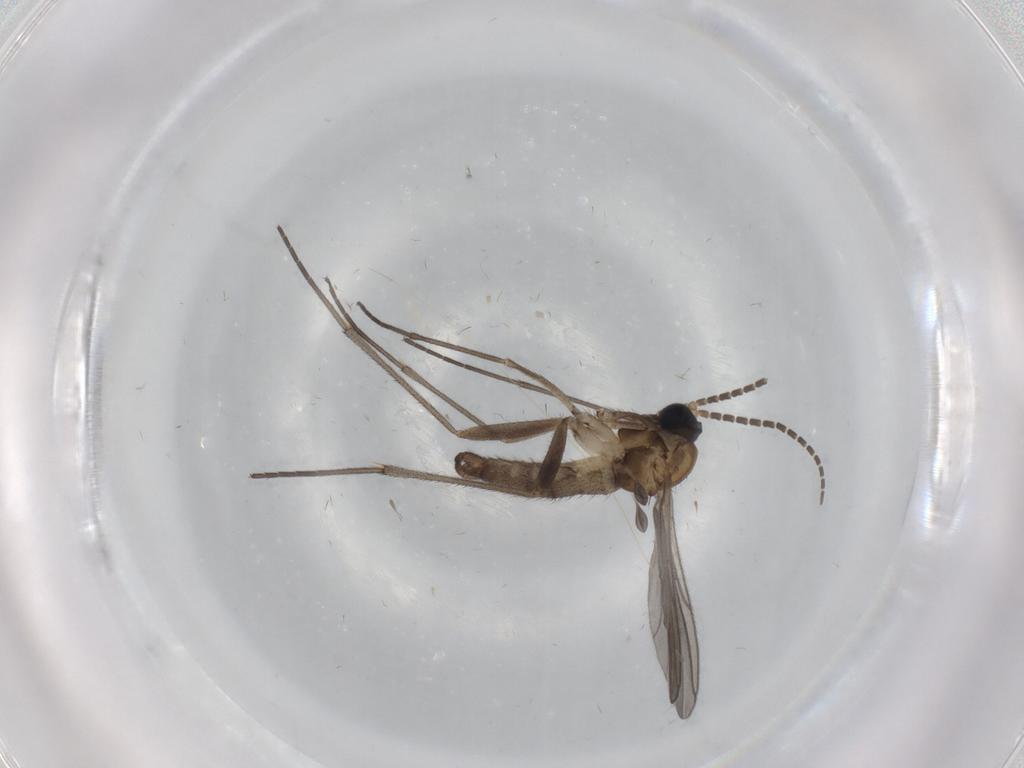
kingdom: Animalia
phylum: Arthropoda
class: Insecta
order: Diptera
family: Sciaridae
